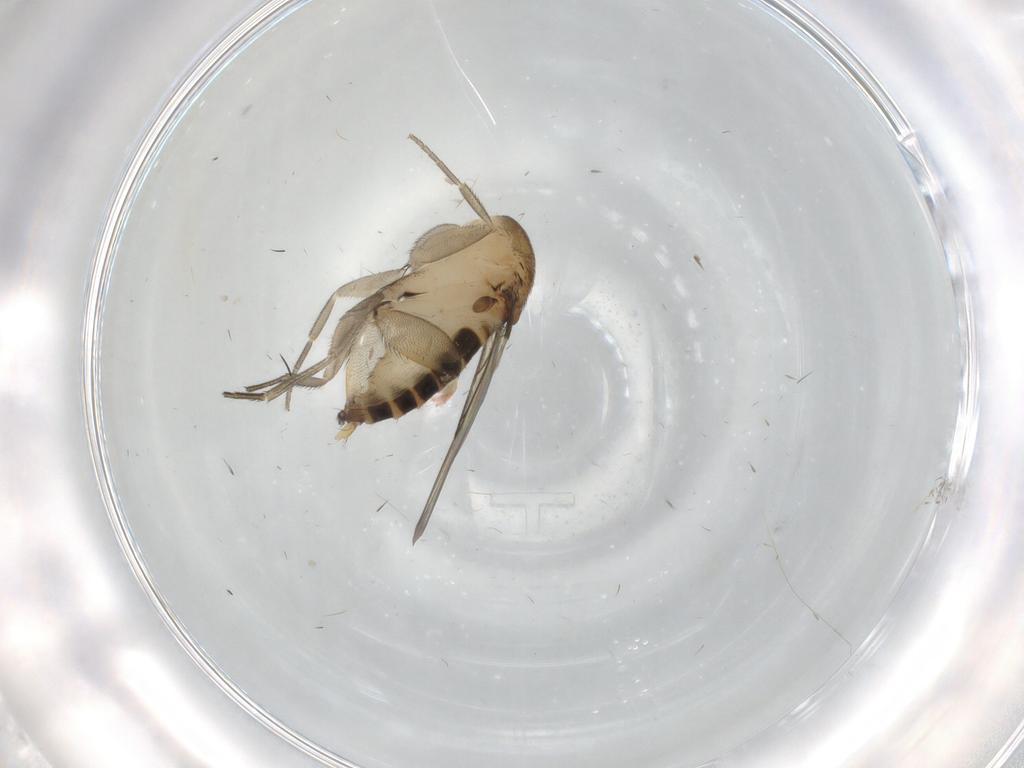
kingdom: Animalia
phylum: Arthropoda
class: Insecta
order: Diptera
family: Phoridae
